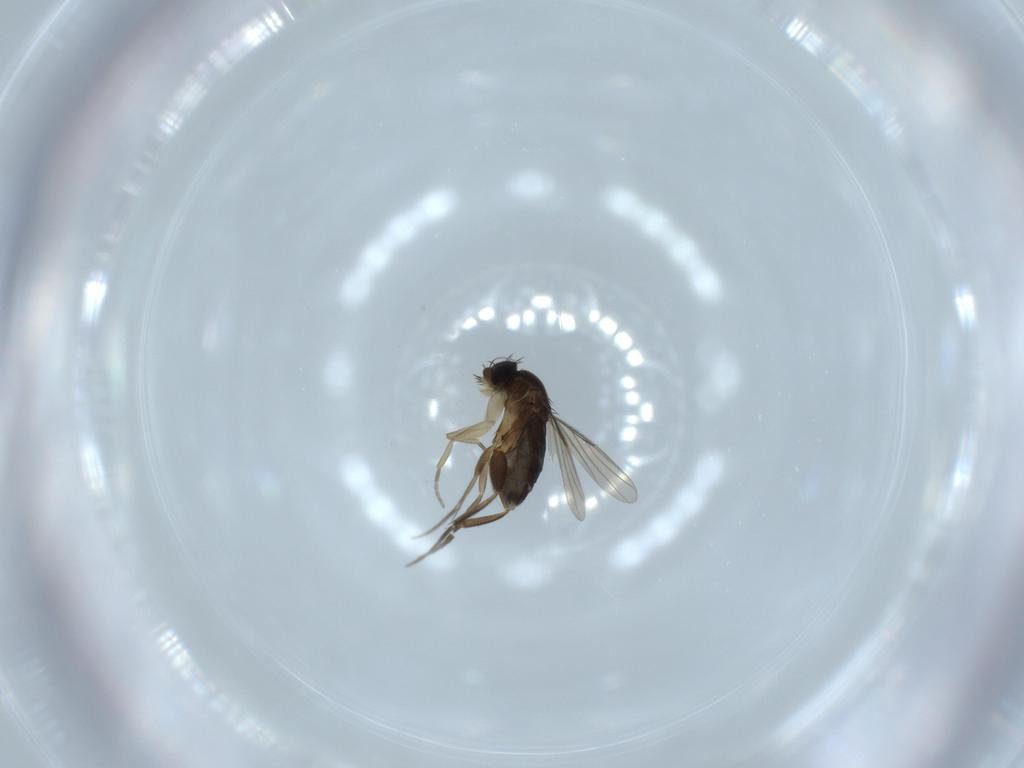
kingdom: Animalia
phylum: Arthropoda
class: Insecta
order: Diptera
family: Phoridae
